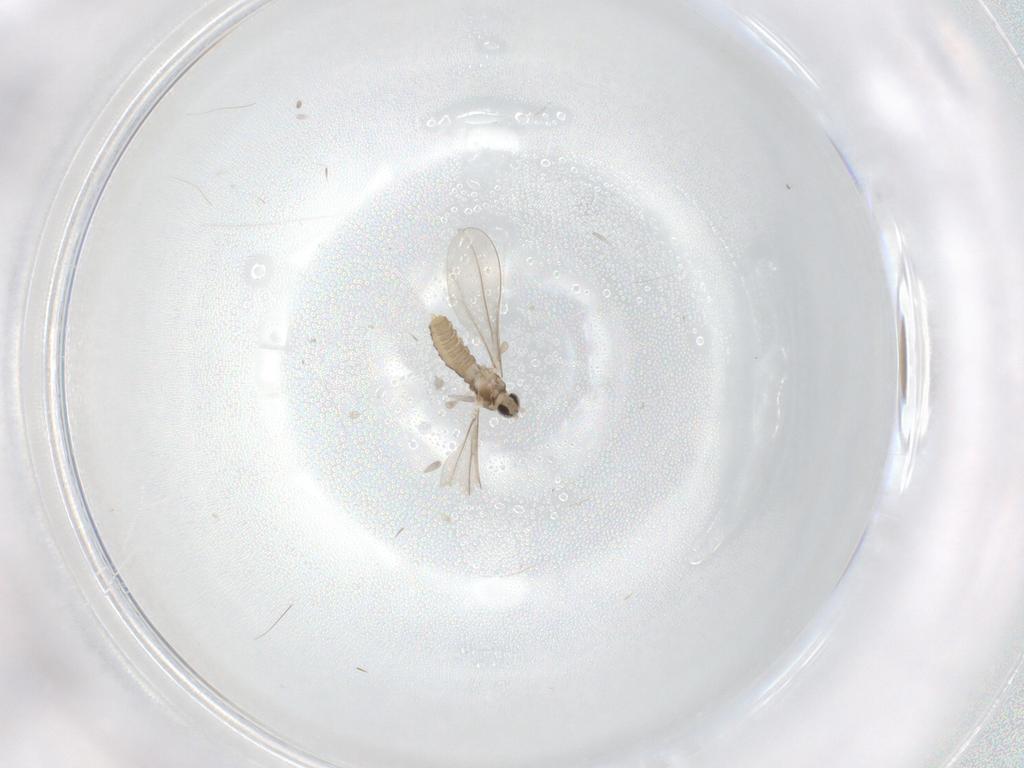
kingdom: Animalia
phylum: Arthropoda
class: Insecta
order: Diptera
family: Cecidomyiidae
